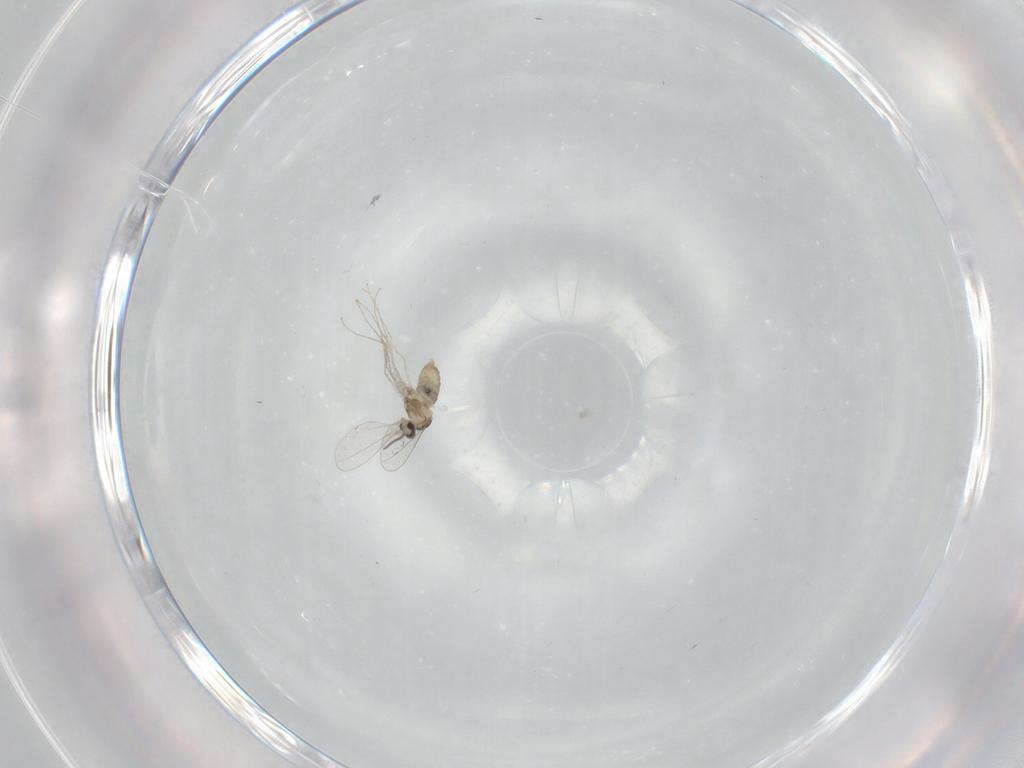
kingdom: Animalia
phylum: Arthropoda
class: Insecta
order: Diptera
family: Cecidomyiidae
